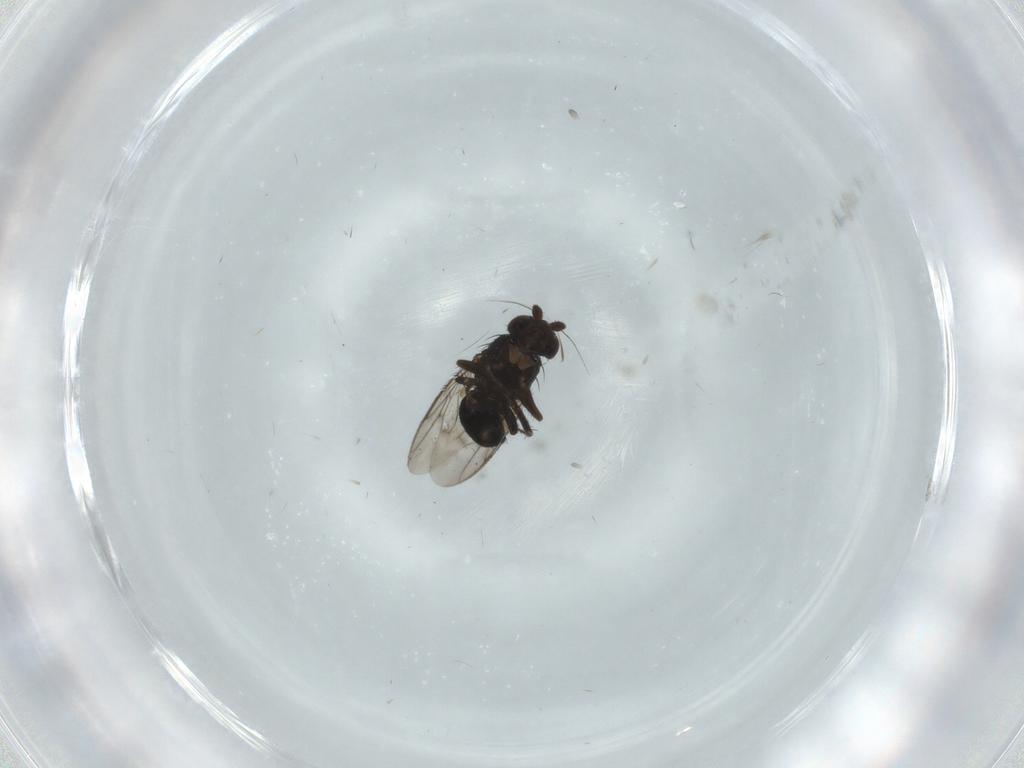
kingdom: Animalia
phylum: Arthropoda
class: Insecta
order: Diptera
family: Sphaeroceridae
